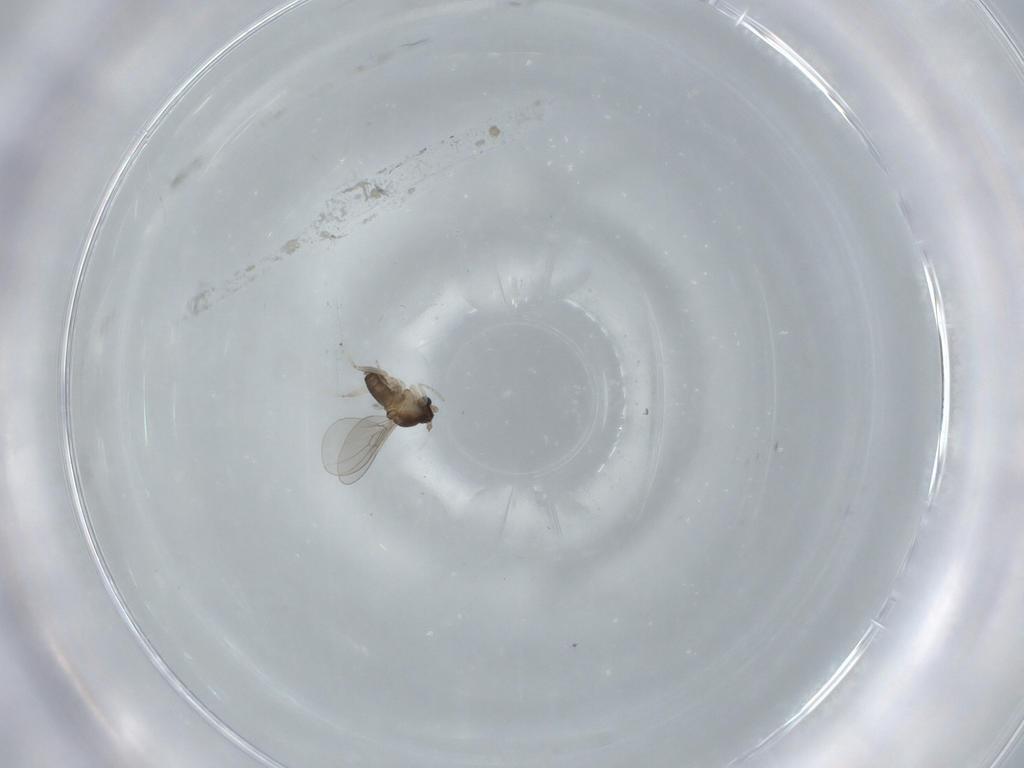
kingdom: Animalia
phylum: Arthropoda
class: Insecta
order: Diptera
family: Cecidomyiidae
